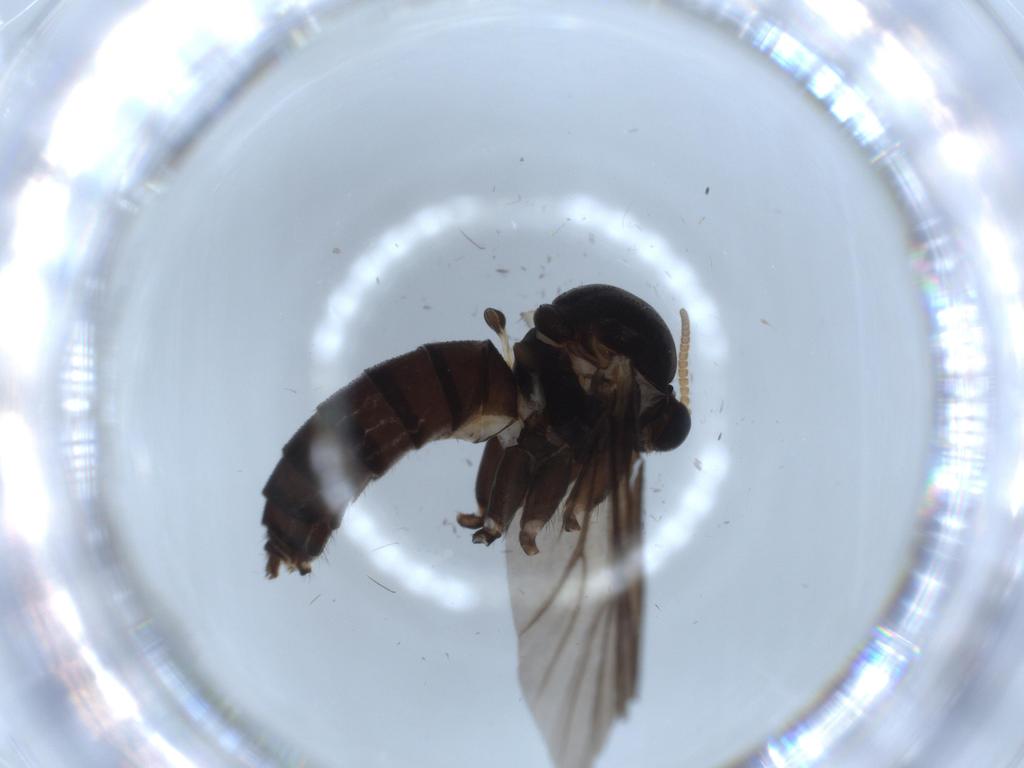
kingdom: Animalia
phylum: Arthropoda
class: Insecta
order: Diptera
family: Mycetophilidae
